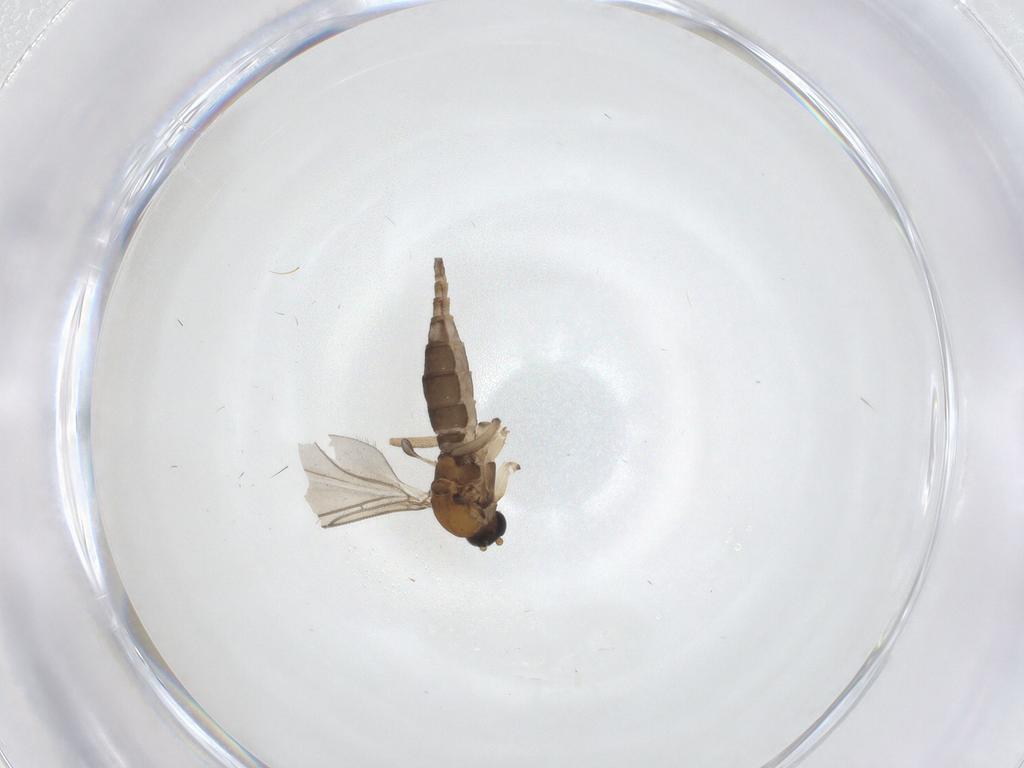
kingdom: Animalia
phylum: Arthropoda
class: Insecta
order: Diptera
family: Sciaridae
